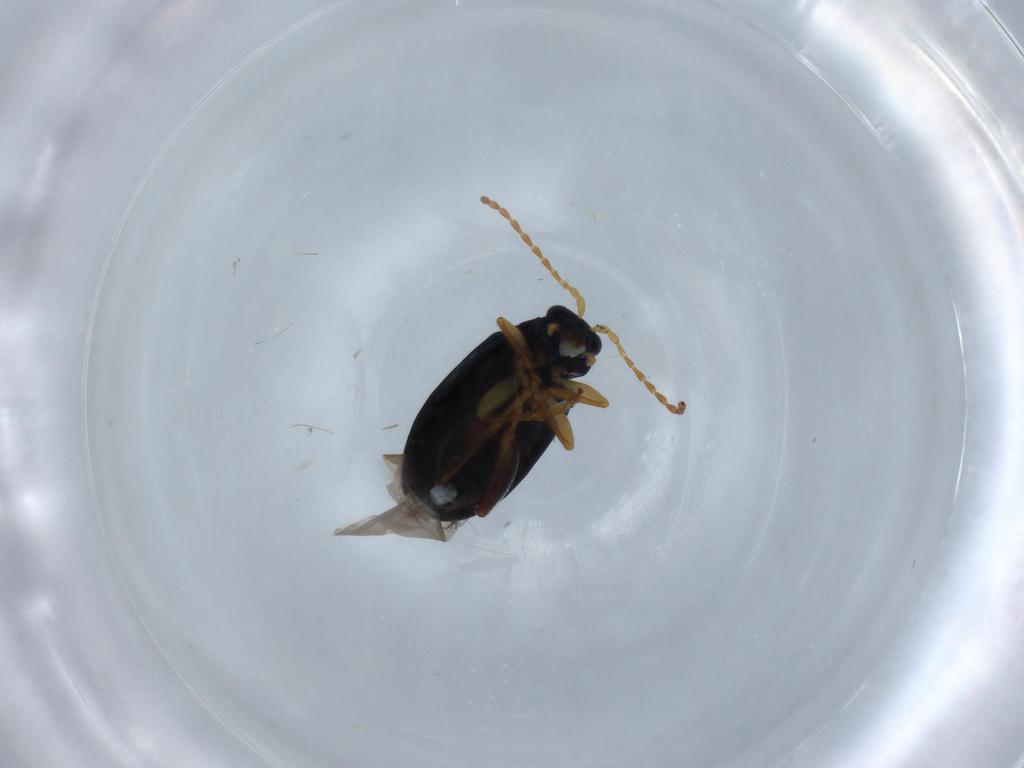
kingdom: Animalia
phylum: Arthropoda
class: Insecta
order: Coleoptera
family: Chrysomelidae
